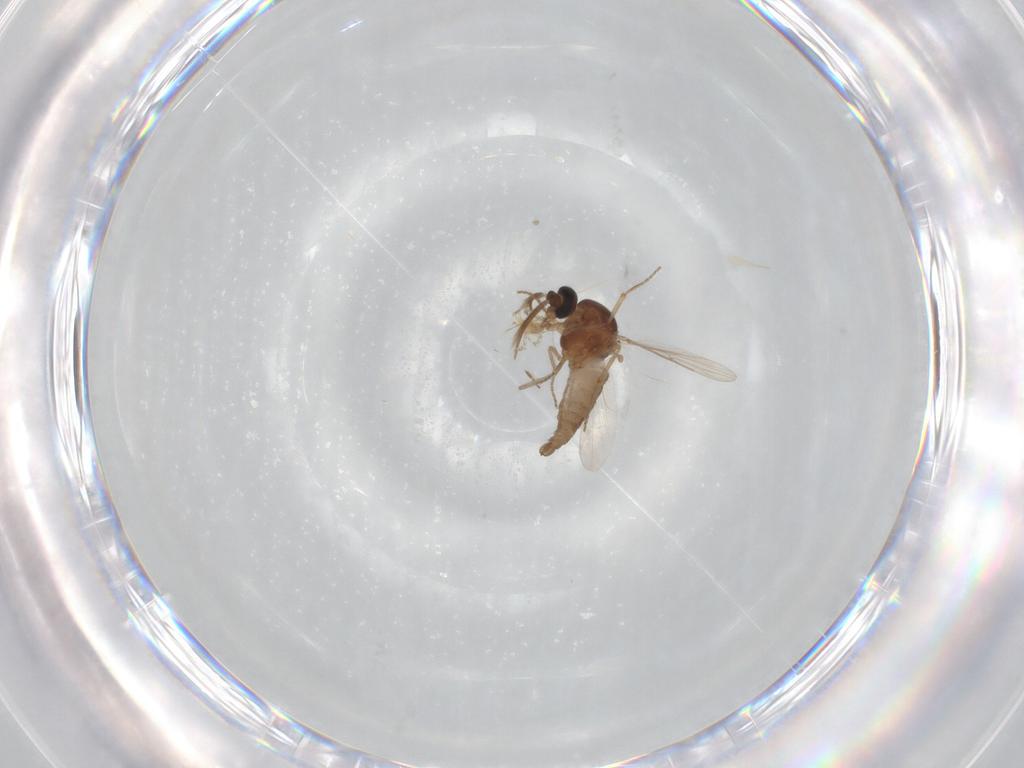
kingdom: Animalia
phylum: Arthropoda
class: Insecta
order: Diptera
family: Ceratopogonidae
